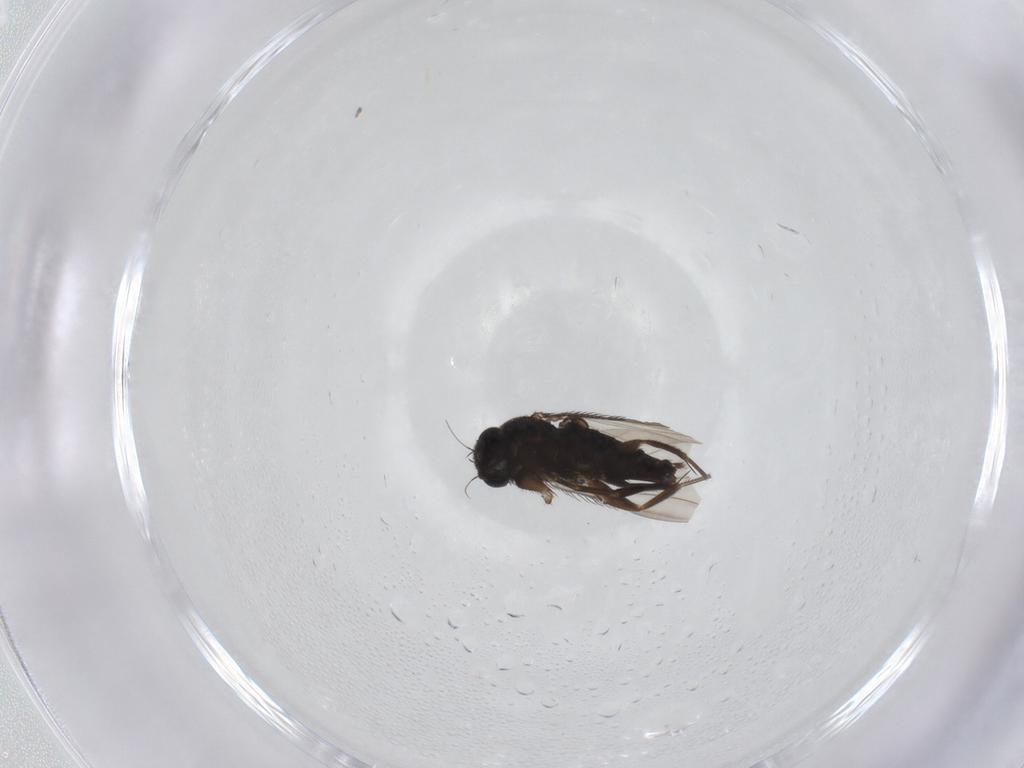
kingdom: Animalia
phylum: Arthropoda
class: Insecta
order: Diptera
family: Phoridae
